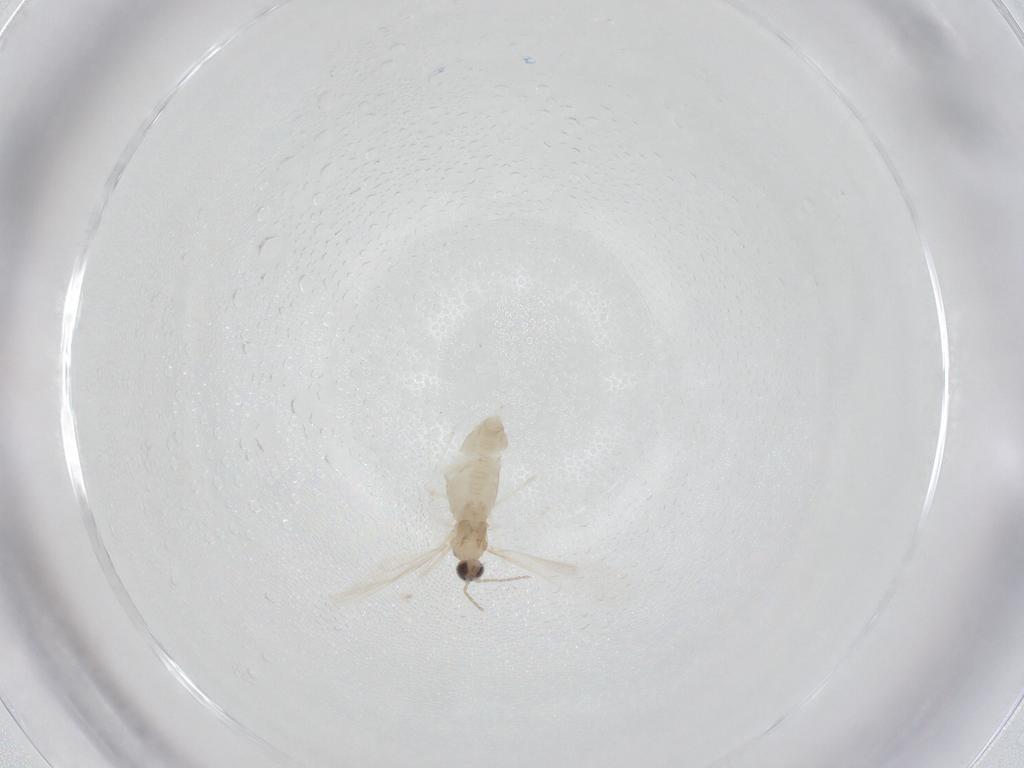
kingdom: Animalia
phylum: Arthropoda
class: Insecta
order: Diptera
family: Cecidomyiidae
